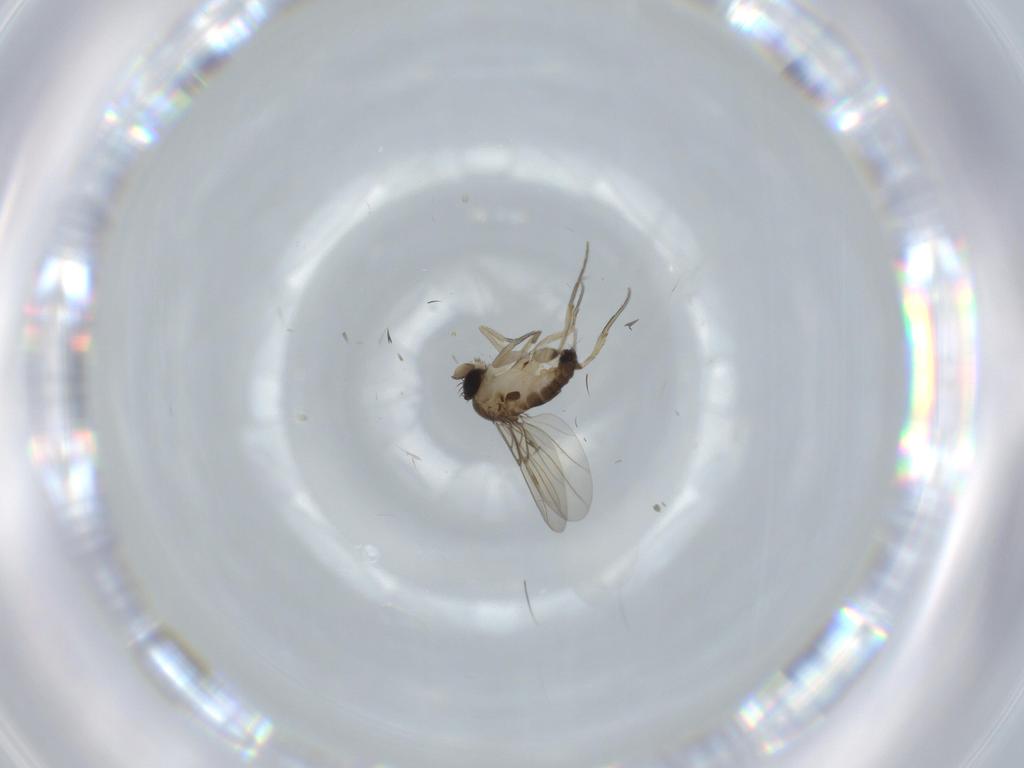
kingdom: Animalia
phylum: Arthropoda
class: Insecta
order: Diptera
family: Phoridae
